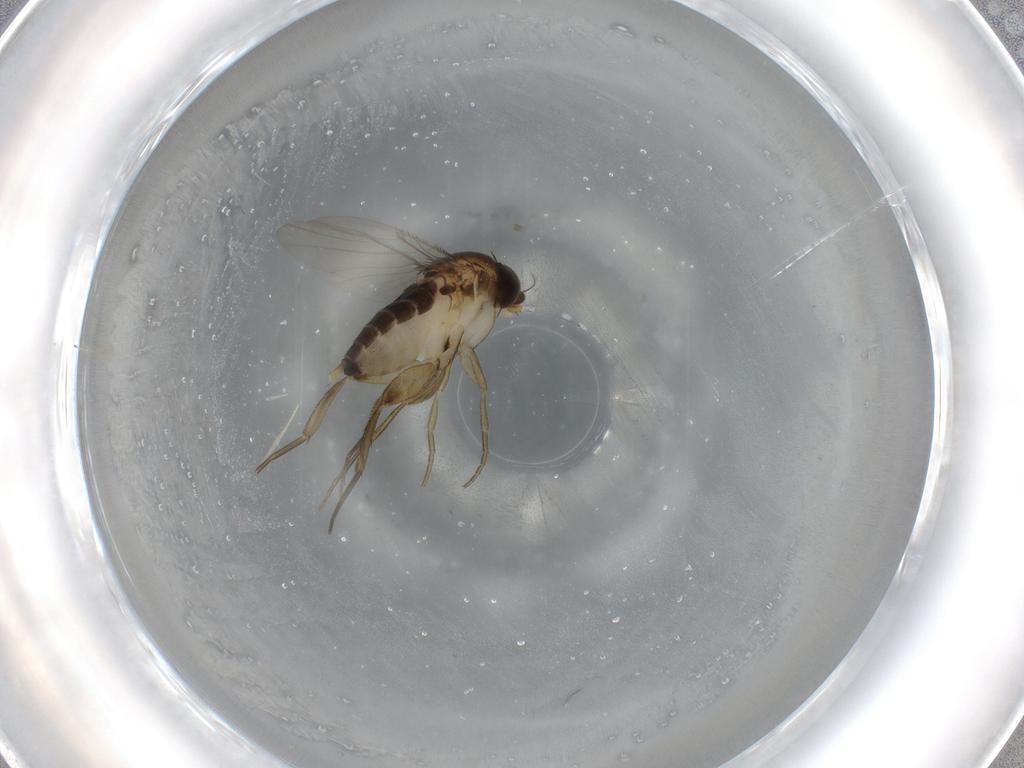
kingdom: Animalia
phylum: Arthropoda
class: Insecta
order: Diptera
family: Phoridae
